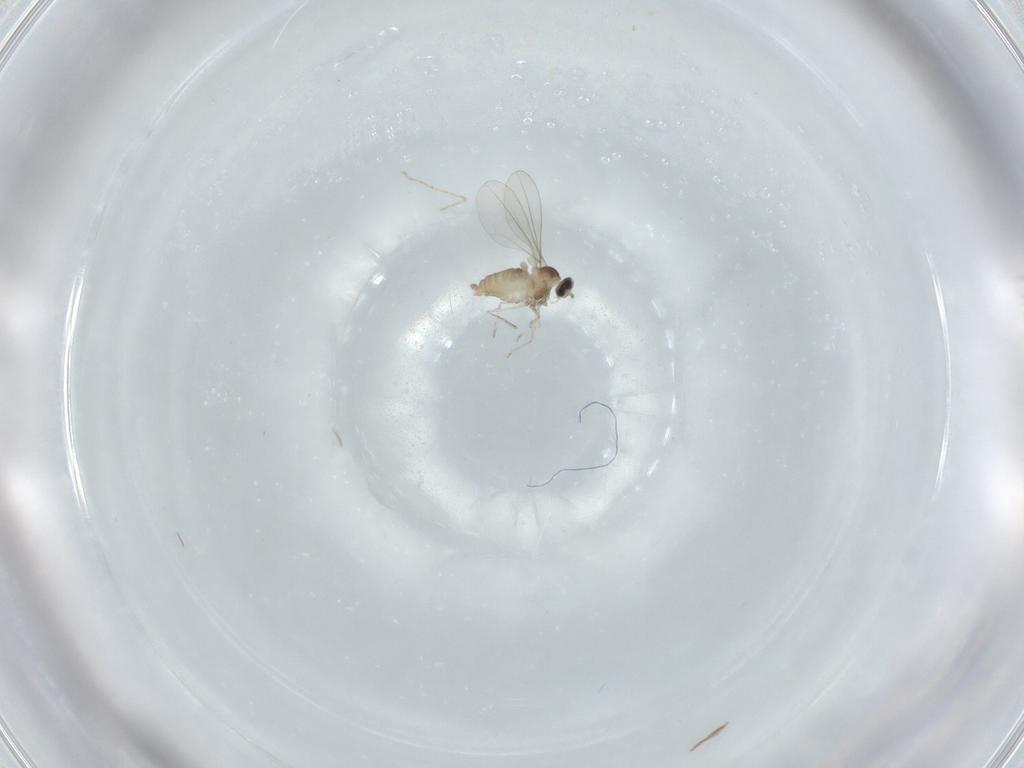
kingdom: Animalia
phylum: Arthropoda
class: Insecta
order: Diptera
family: Cecidomyiidae
